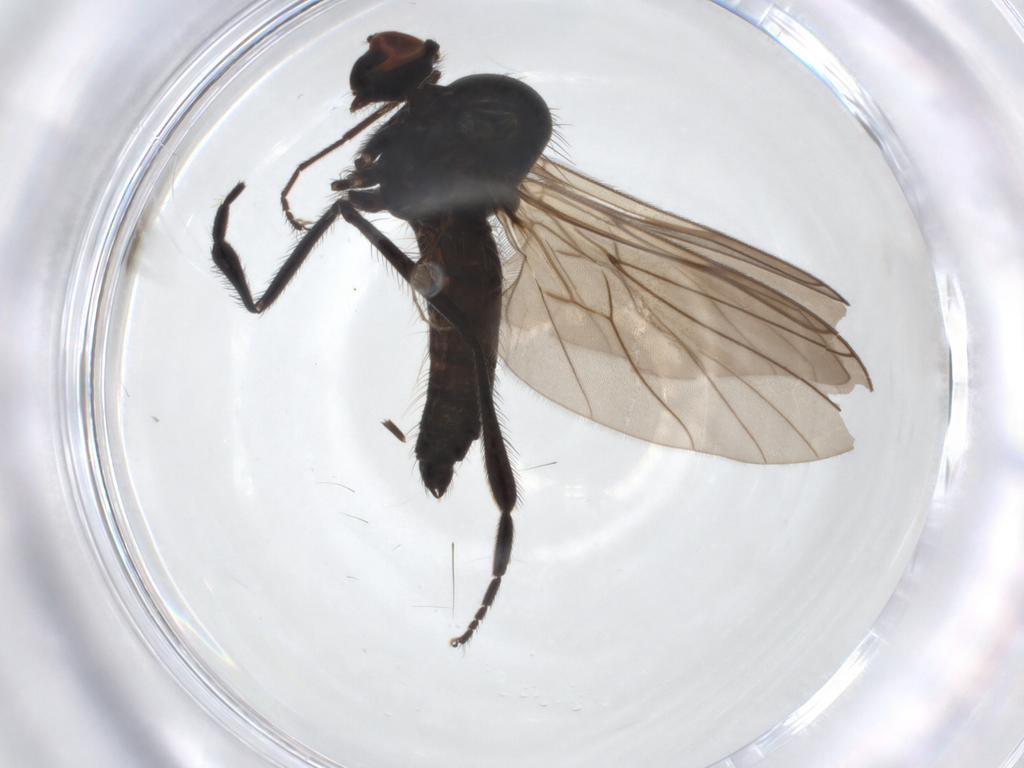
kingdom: Animalia
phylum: Arthropoda
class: Insecta
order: Diptera
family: Hybotidae
